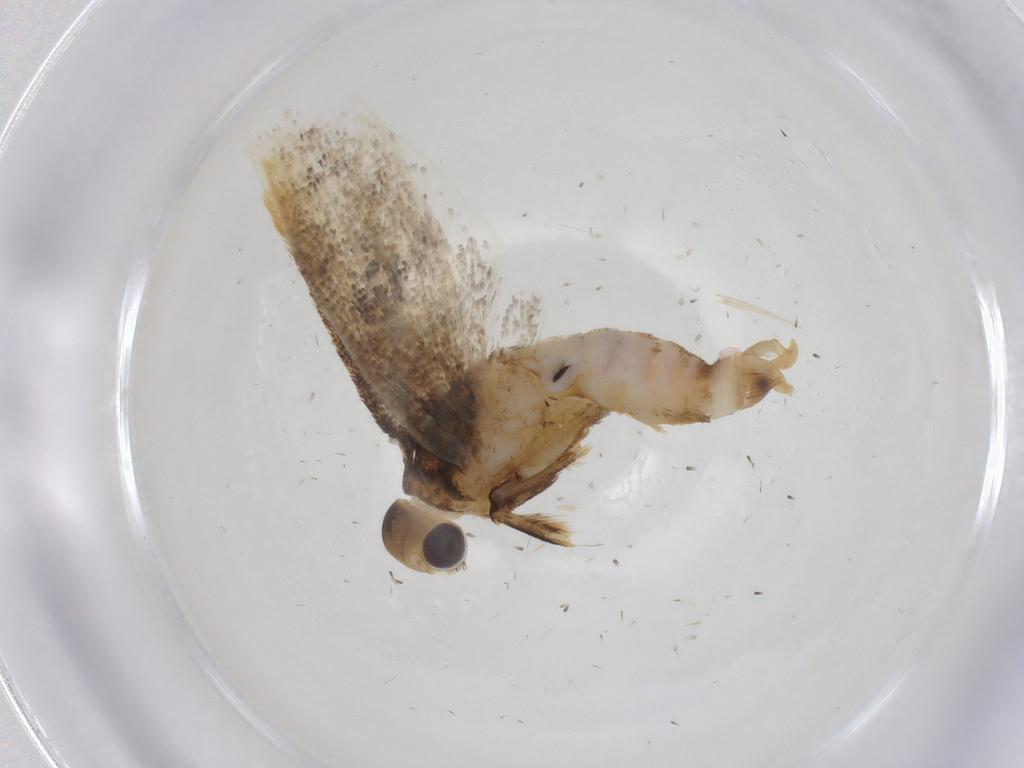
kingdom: Animalia
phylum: Arthropoda
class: Insecta
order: Lepidoptera
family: Lecithoceridae
